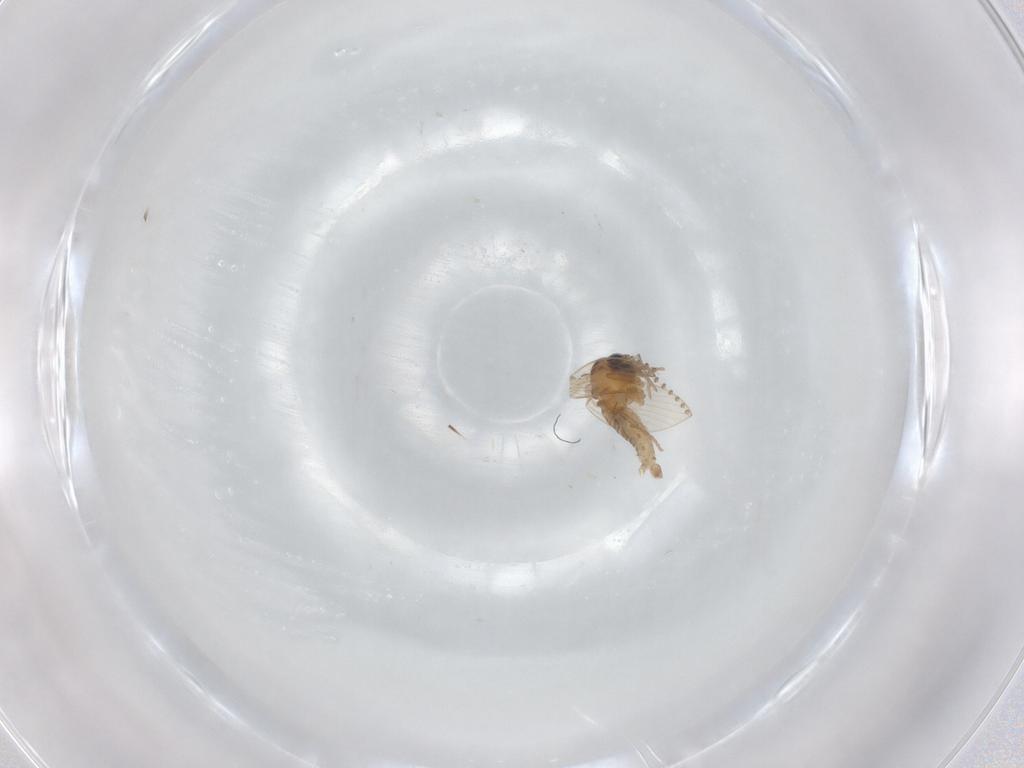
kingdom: Animalia
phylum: Arthropoda
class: Insecta
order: Diptera
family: Psychodidae
